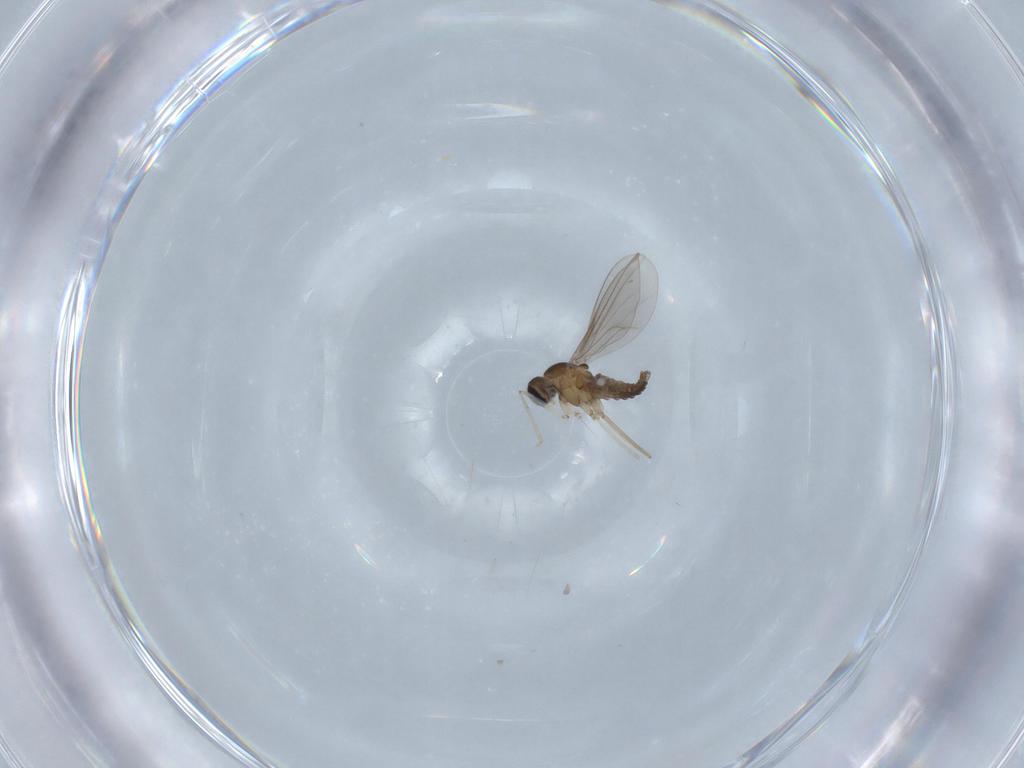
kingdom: Animalia
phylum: Arthropoda
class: Insecta
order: Diptera
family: Cecidomyiidae
